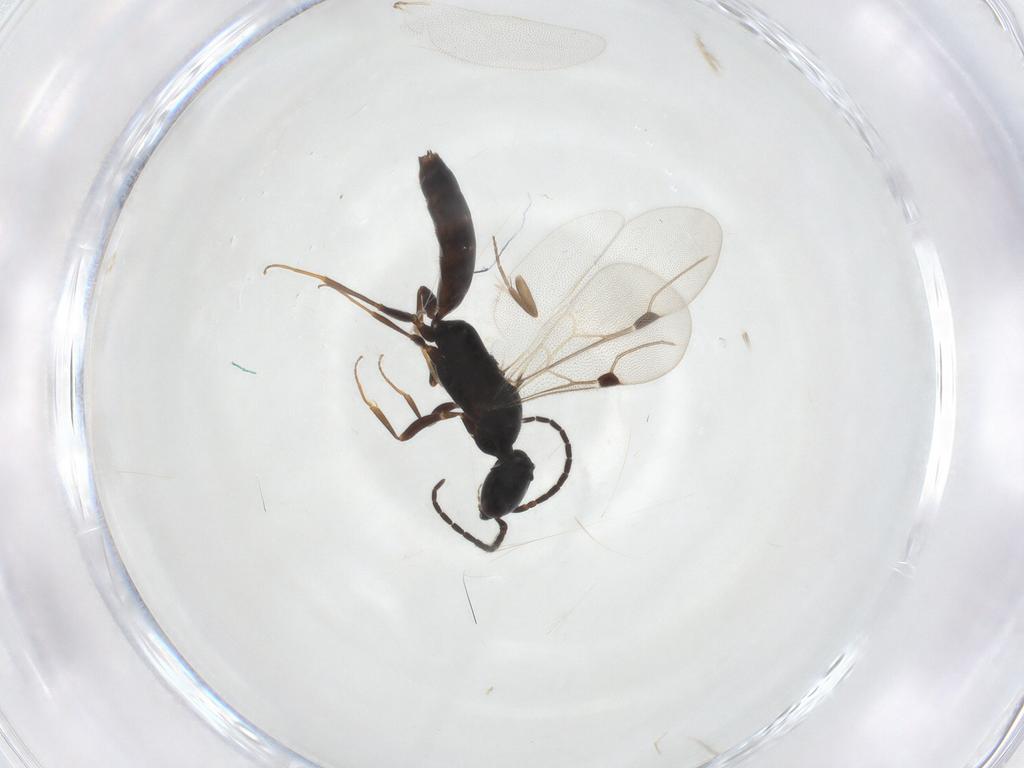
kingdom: Animalia
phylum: Arthropoda
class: Insecta
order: Hymenoptera
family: Bethylidae
